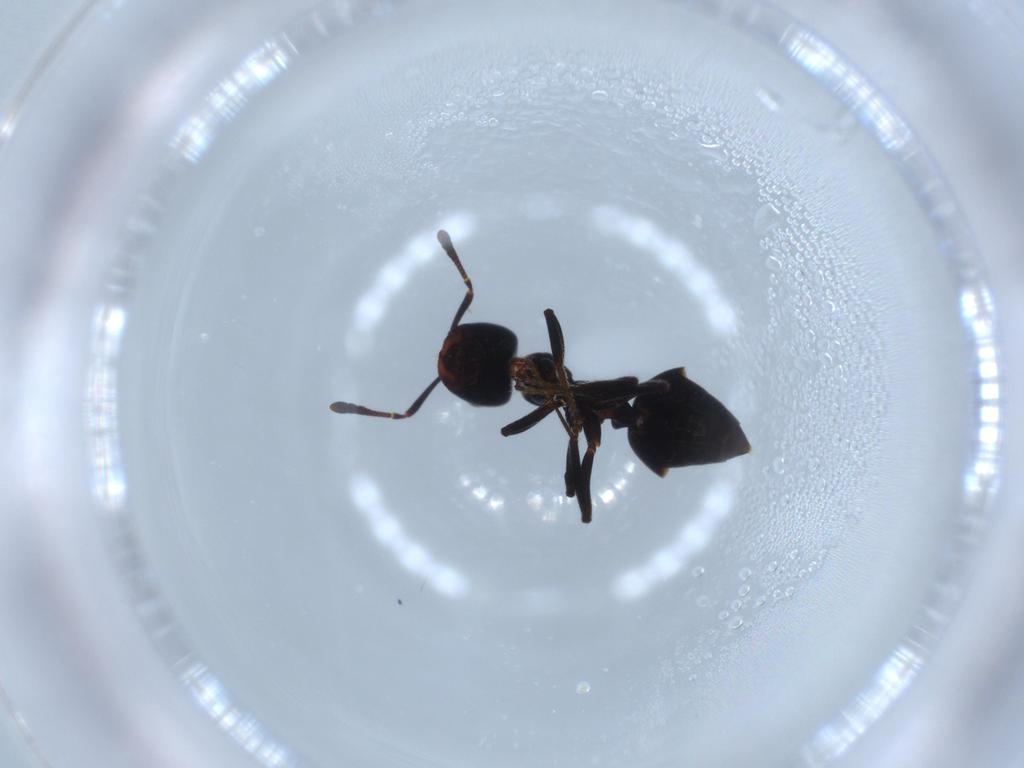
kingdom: Animalia
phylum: Arthropoda
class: Insecta
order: Hymenoptera
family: Formicidae
